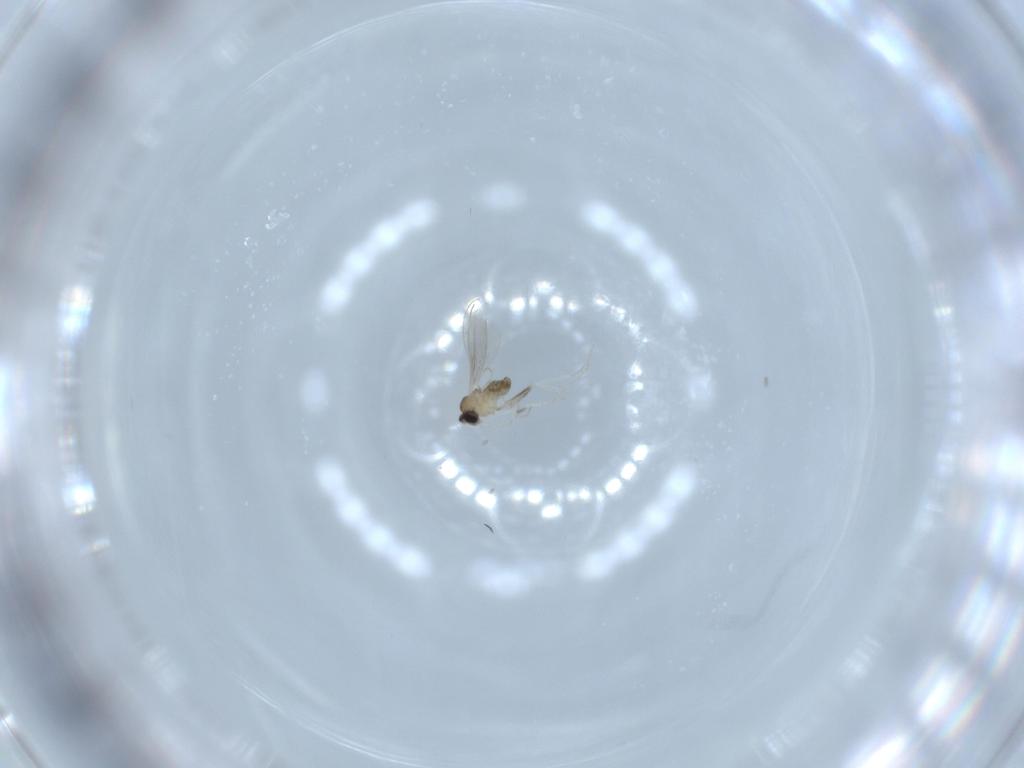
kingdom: Animalia
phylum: Arthropoda
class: Insecta
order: Diptera
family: Cecidomyiidae
